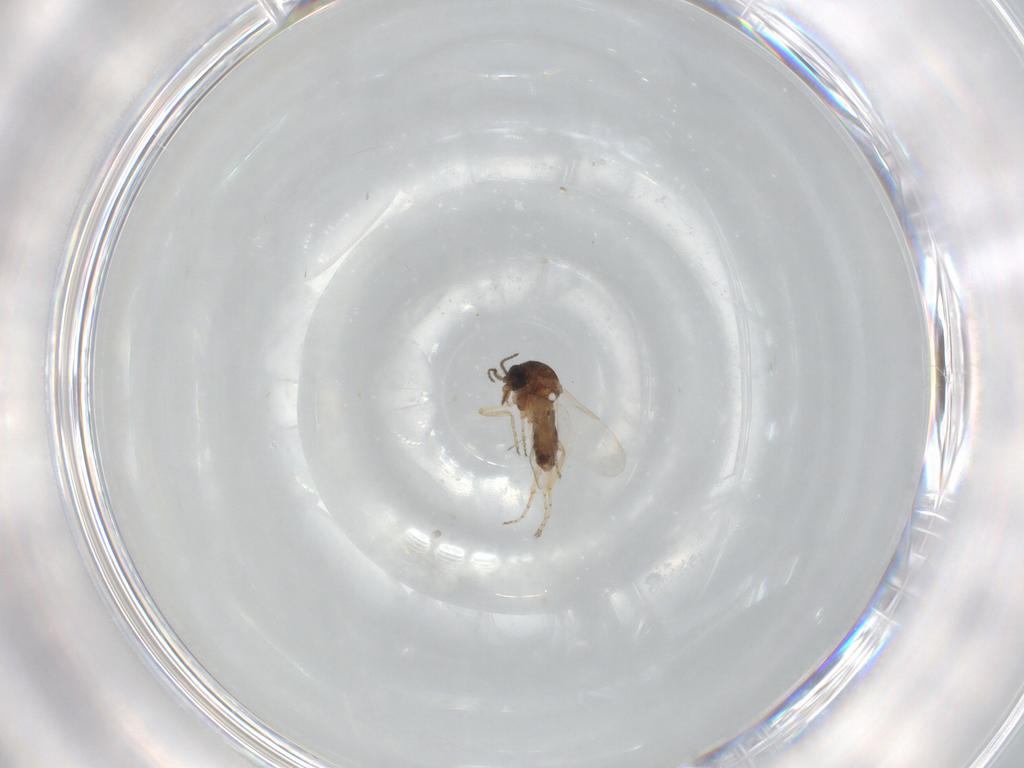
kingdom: Animalia
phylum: Arthropoda
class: Insecta
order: Diptera
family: Ceratopogonidae
